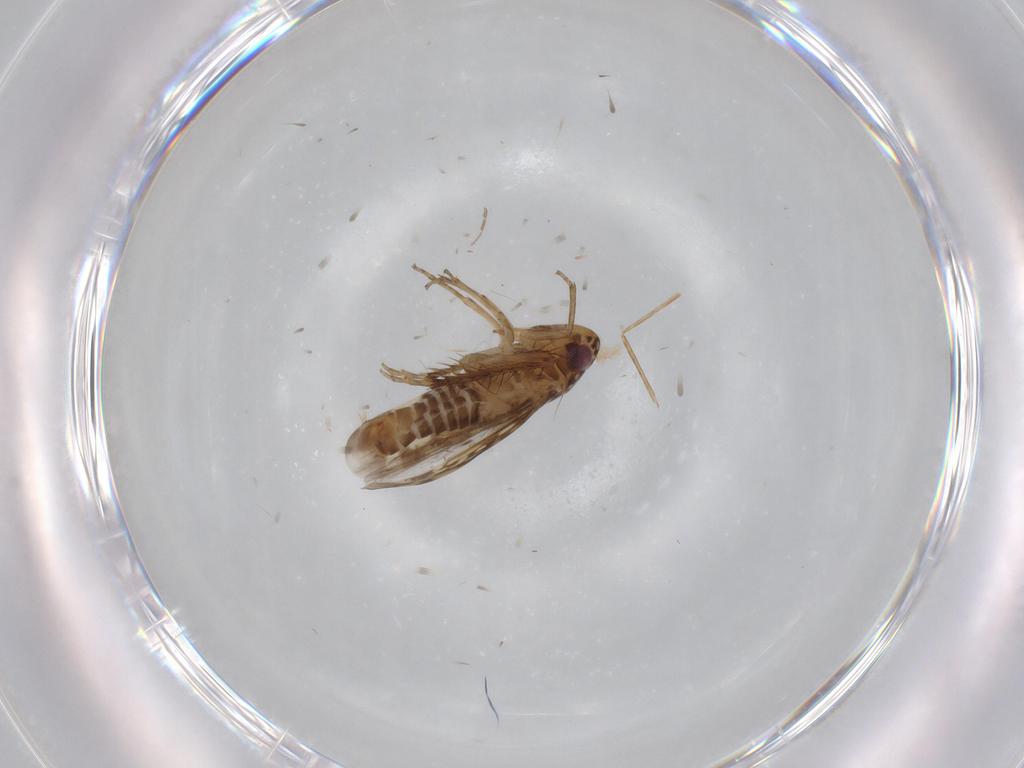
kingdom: Animalia
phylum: Arthropoda
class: Insecta
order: Hemiptera
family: Cicadellidae
